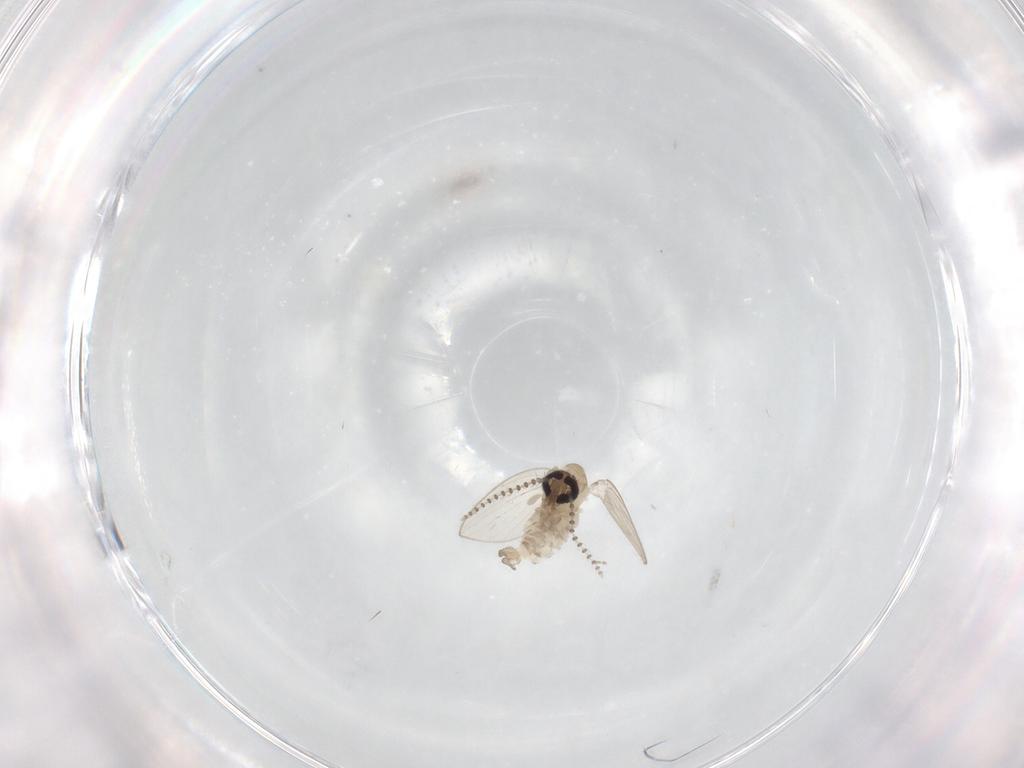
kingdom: Animalia
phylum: Arthropoda
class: Insecta
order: Diptera
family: Psychodidae
